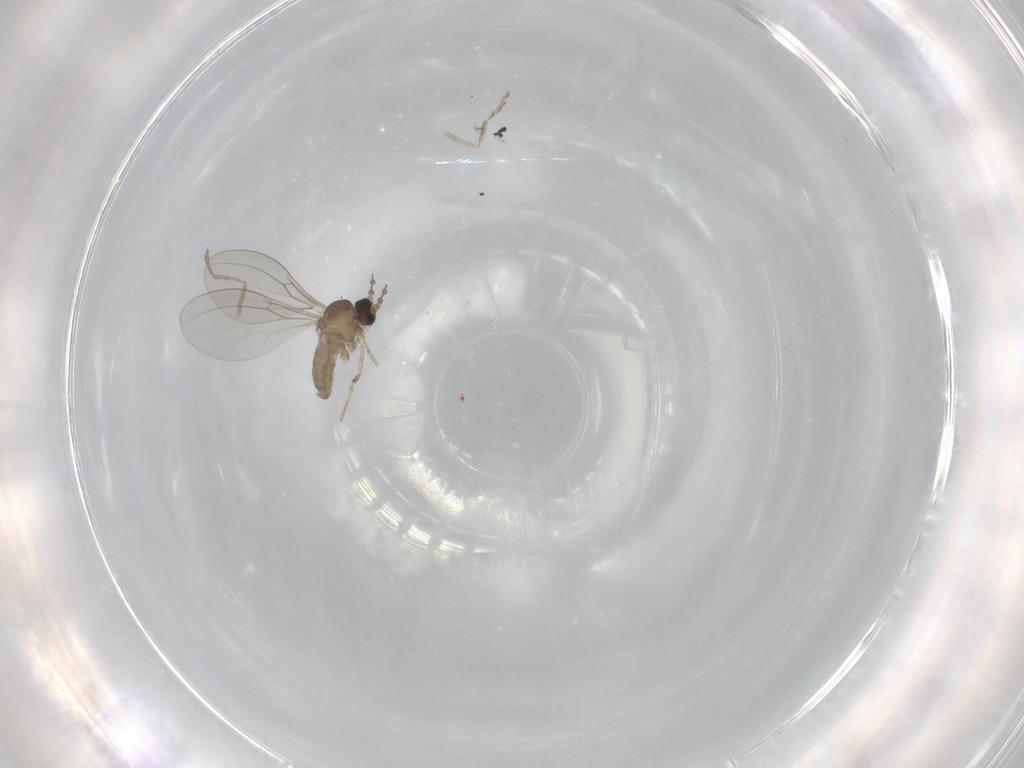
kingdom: Animalia
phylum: Arthropoda
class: Insecta
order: Diptera
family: Cecidomyiidae
